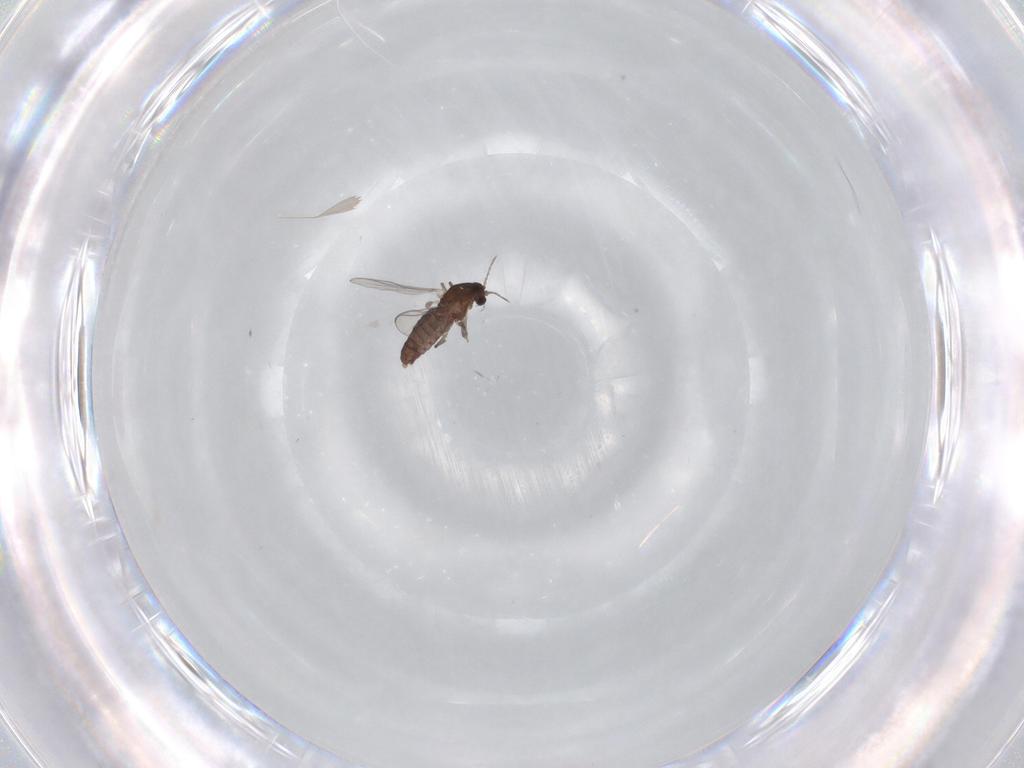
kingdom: Animalia
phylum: Arthropoda
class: Insecta
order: Diptera
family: Chironomidae
